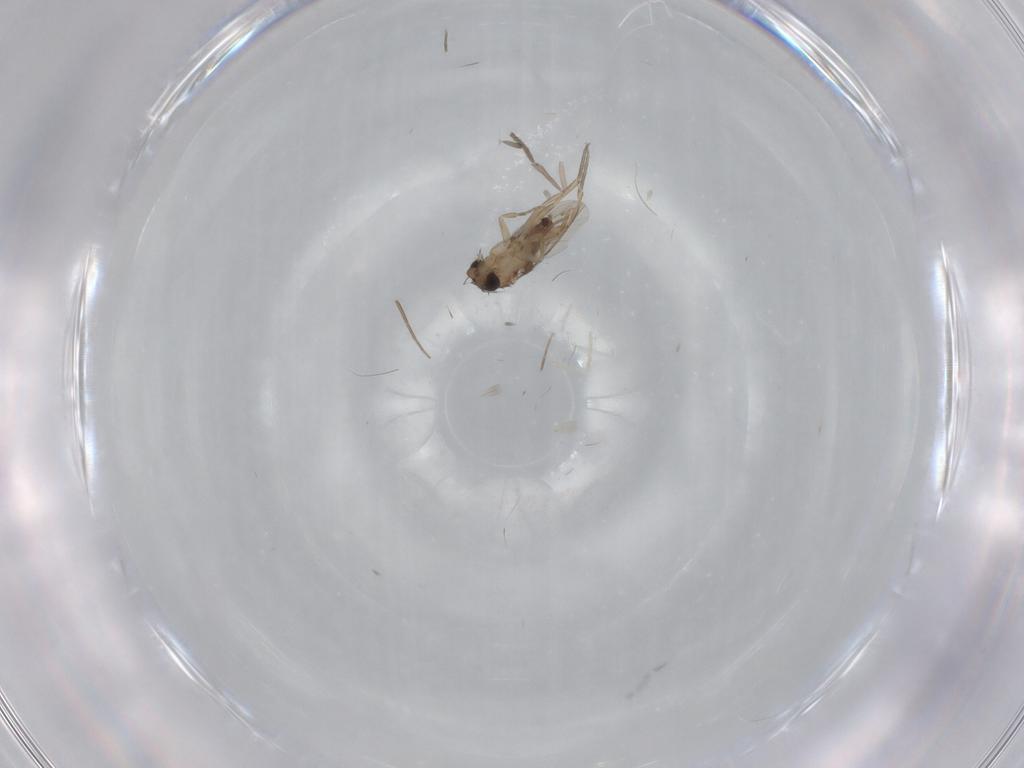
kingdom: Animalia
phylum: Arthropoda
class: Insecta
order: Diptera
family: Phoridae
